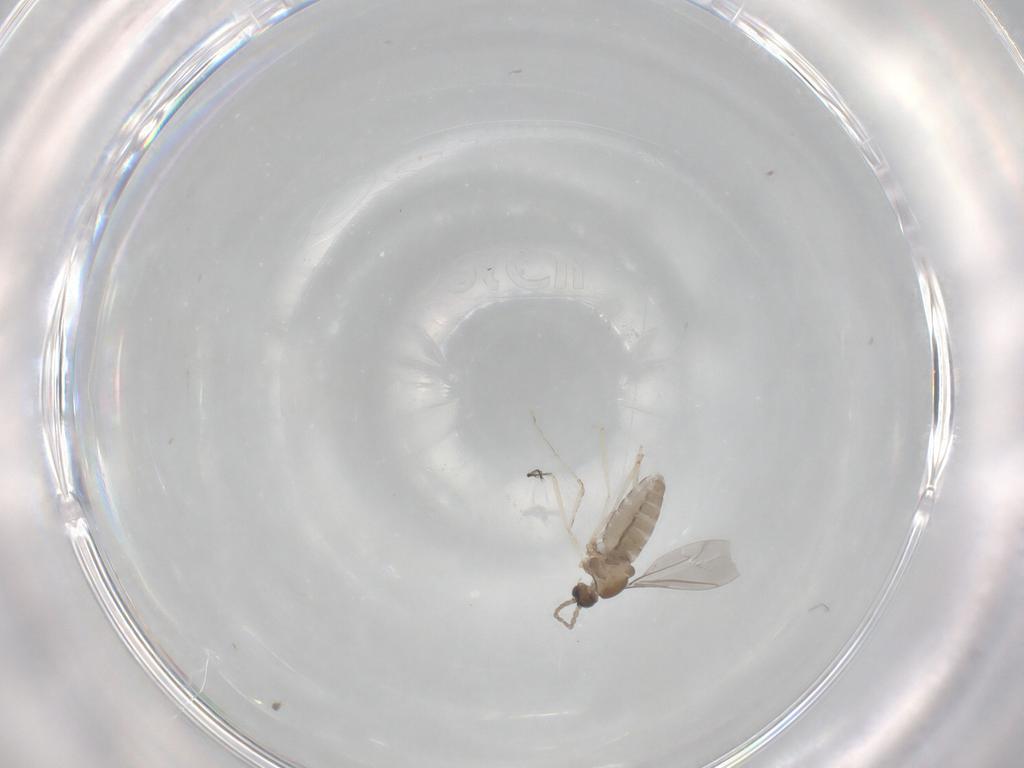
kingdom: Animalia
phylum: Arthropoda
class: Insecta
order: Diptera
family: Cecidomyiidae
